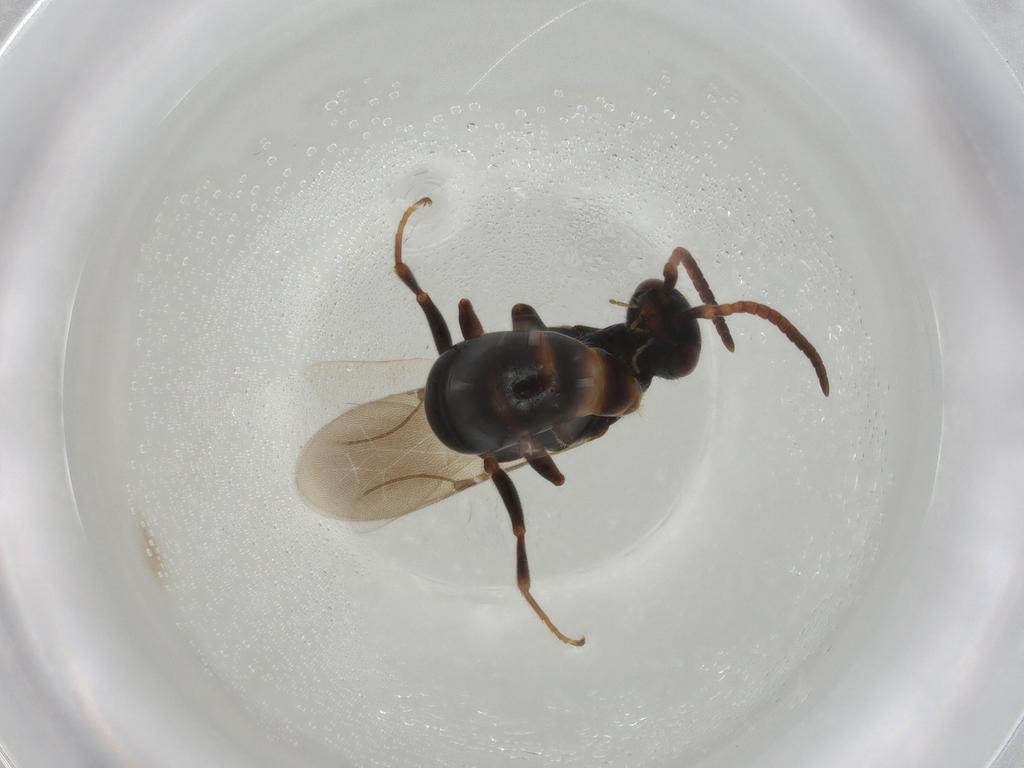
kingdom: Animalia
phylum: Arthropoda
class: Insecta
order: Hymenoptera
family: Bethylidae
